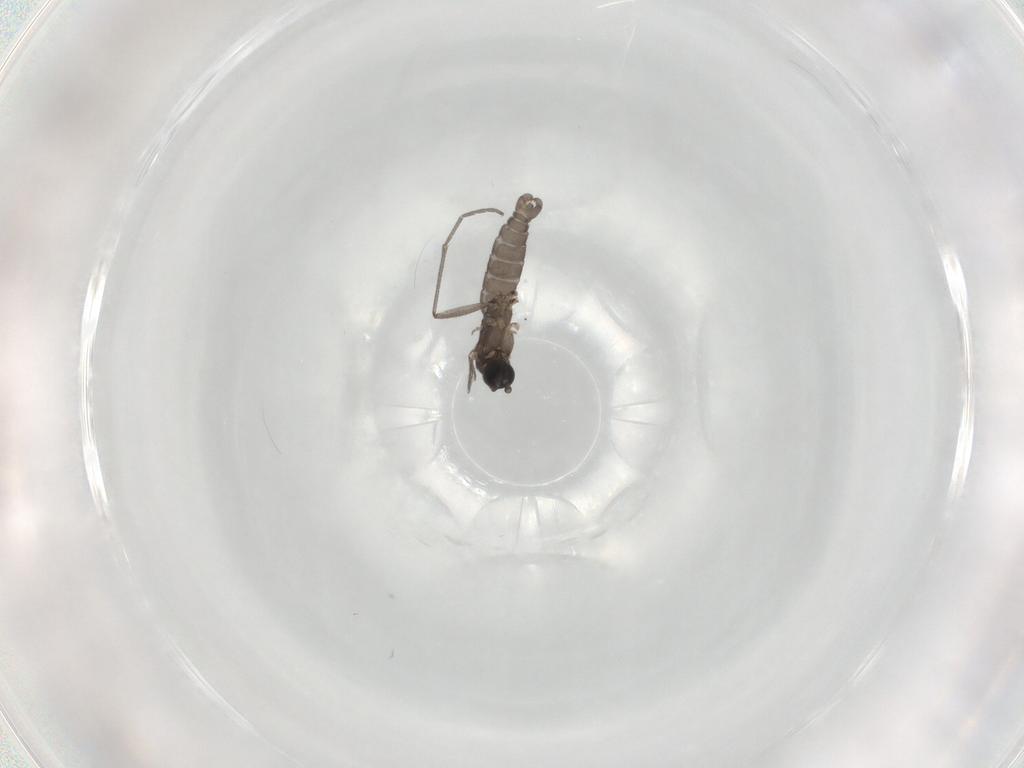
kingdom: Animalia
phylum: Arthropoda
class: Insecta
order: Diptera
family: Sciaridae
